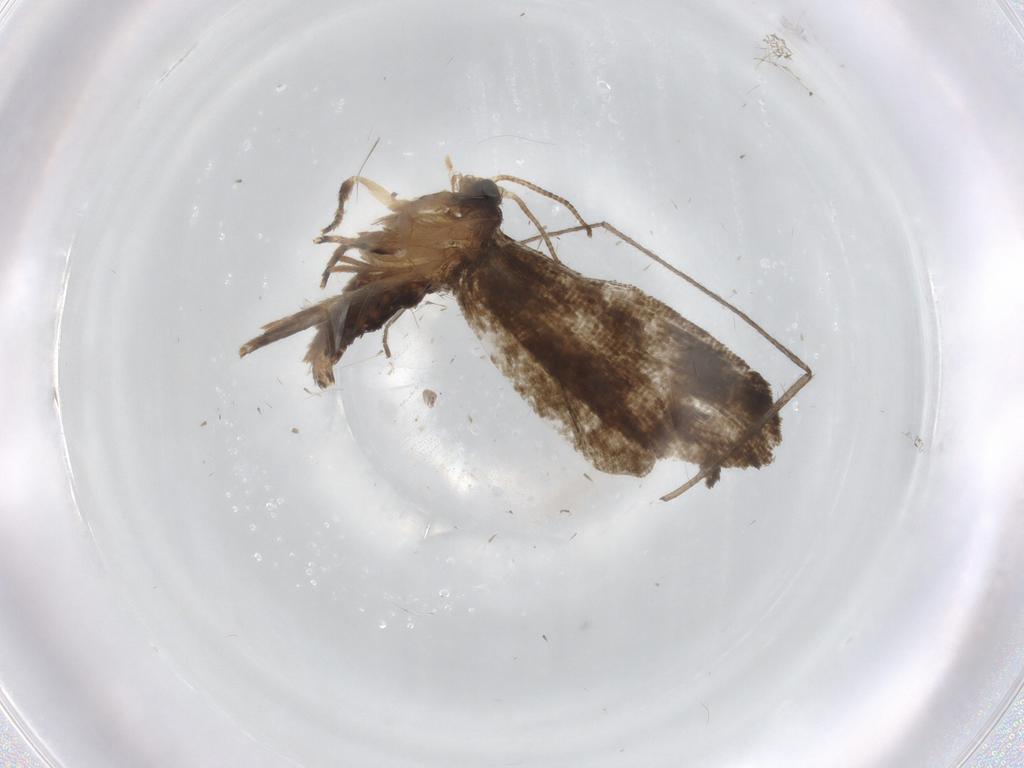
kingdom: Animalia
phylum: Arthropoda
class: Insecta
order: Lepidoptera
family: Crambidae
